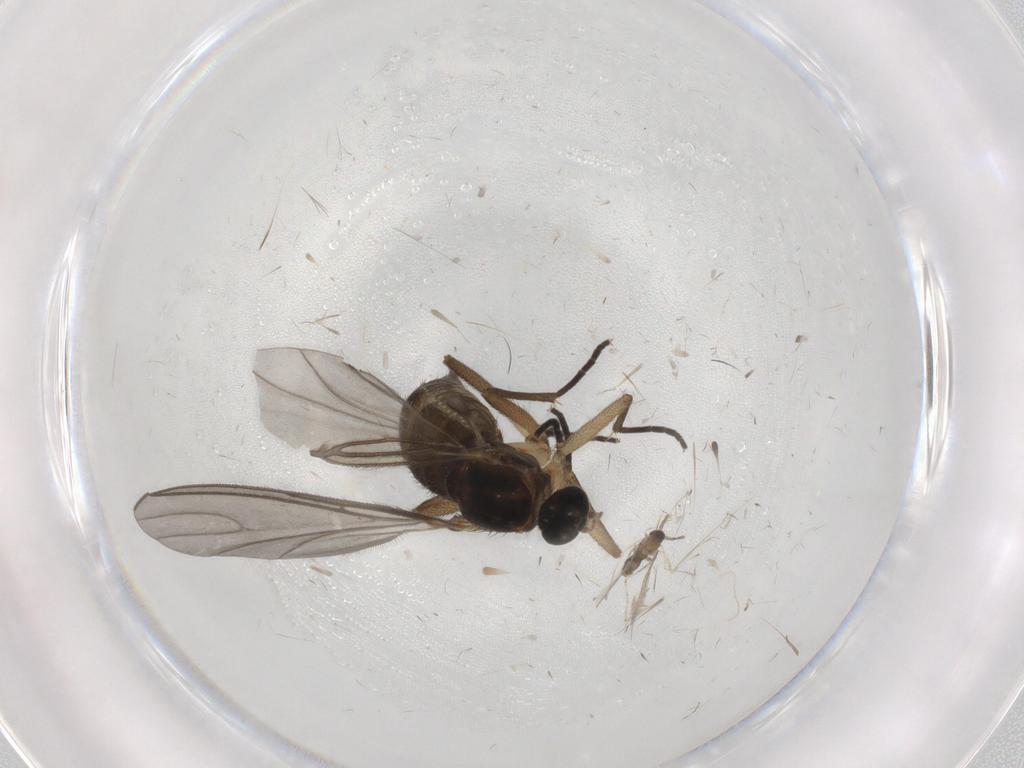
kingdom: Animalia
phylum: Arthropoda
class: Insecta
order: Diptera
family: Sciaridae
